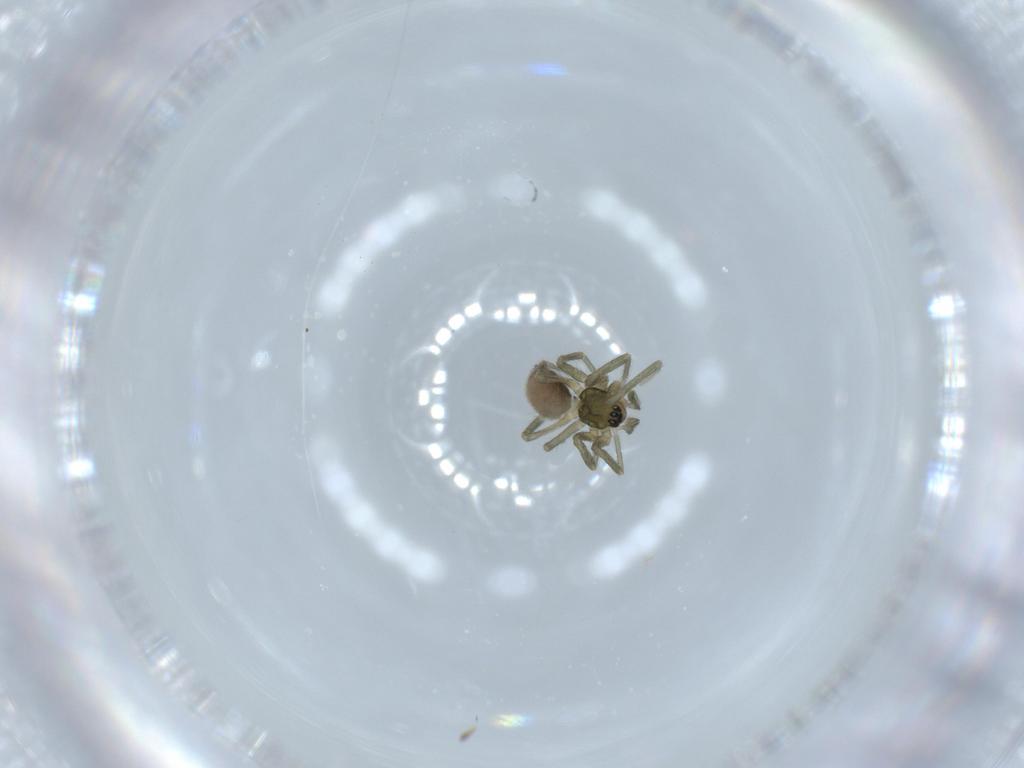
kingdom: Animalia
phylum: Arthropoda
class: Arachnida
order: Araneae
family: Linyphiidae
